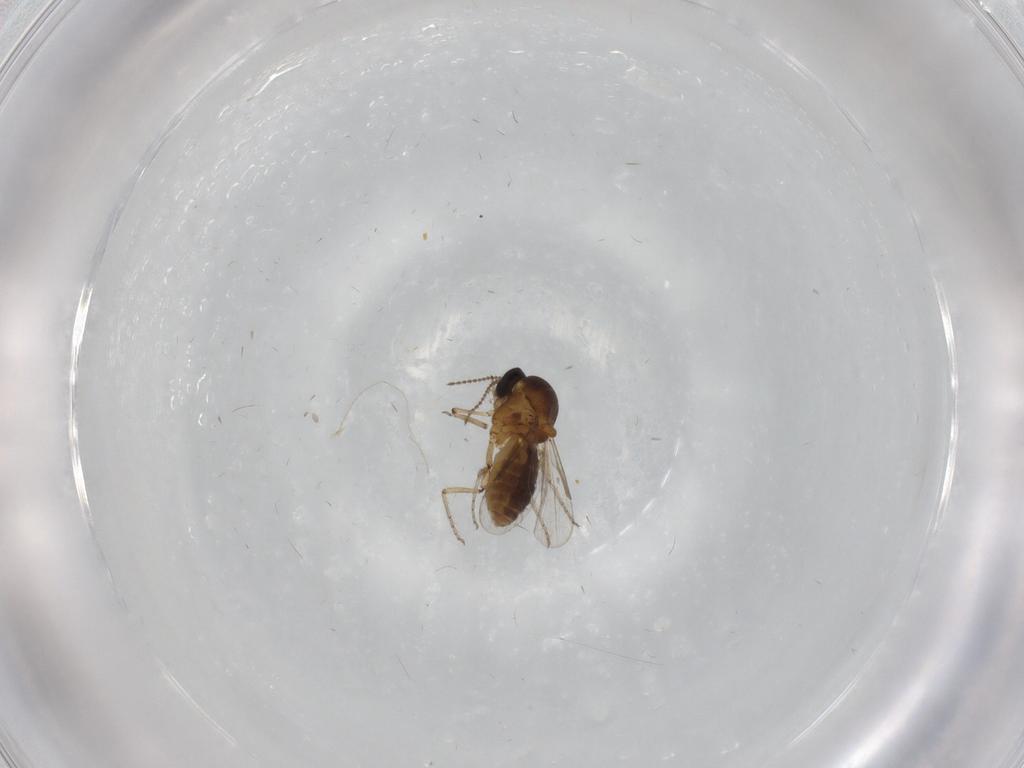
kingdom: Animalia
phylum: Arthropoda
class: Insecta
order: Diptera
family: Ceratopogonidae
